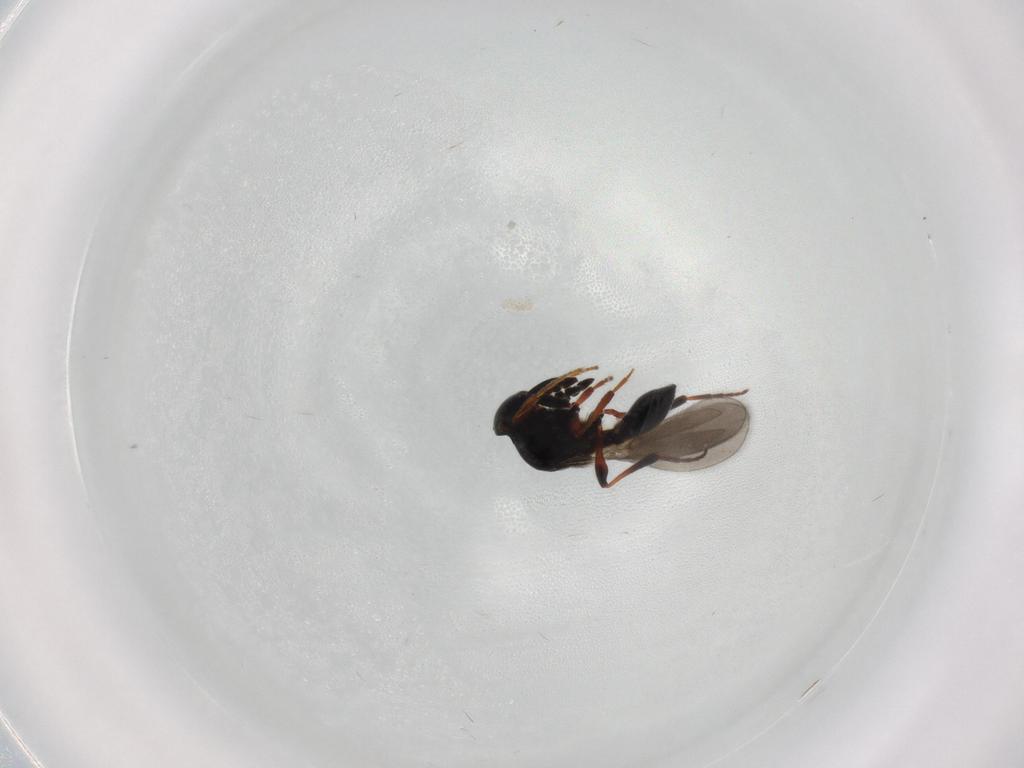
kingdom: Animalia
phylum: Arthropoda
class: Insecta
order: Hymenoptera
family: Platygastridae
